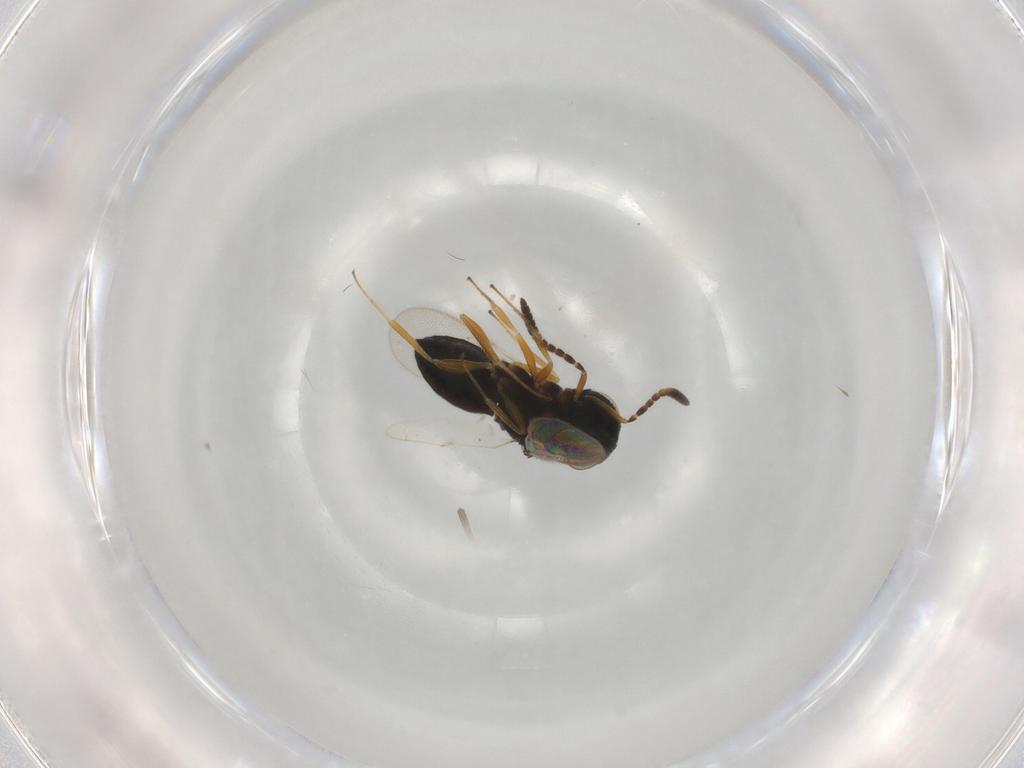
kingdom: Animalia
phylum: Arthropoda
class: Insecta
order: Hymenoptera
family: Scelionidae
